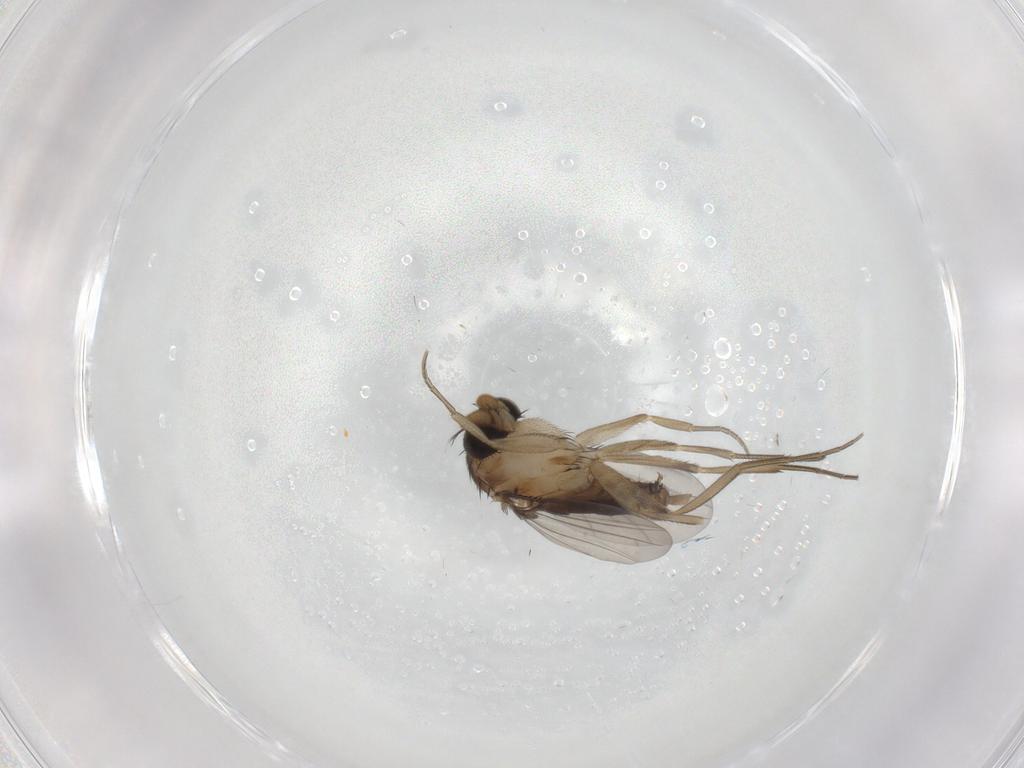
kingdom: Animalia
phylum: Arthropoda
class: Insecta
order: Diptera
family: Phoridae
